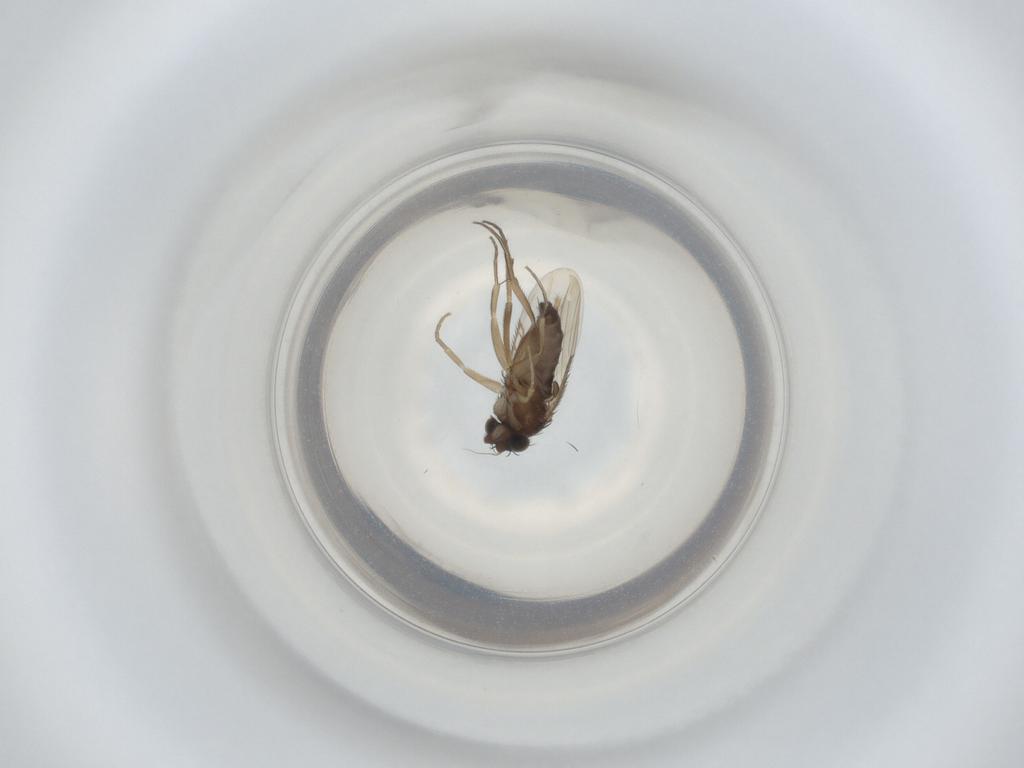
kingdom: Animalia
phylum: Arthropoda
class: Insecta
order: Diptera
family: Phoridae
